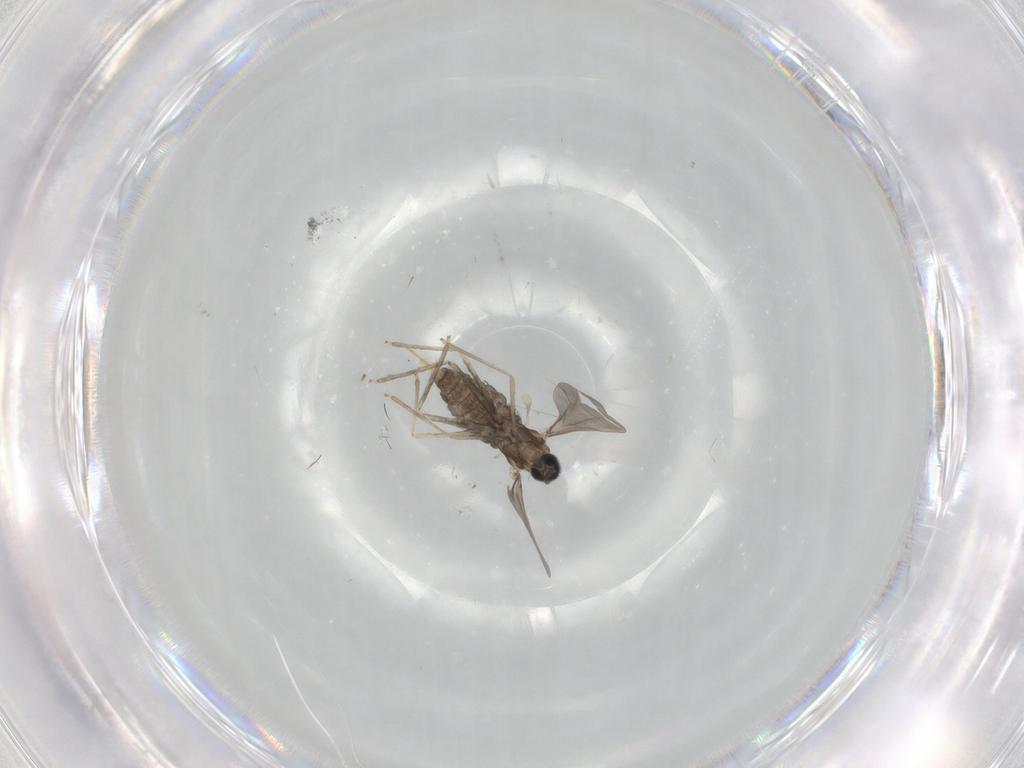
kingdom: Animalia
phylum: Arthropoda
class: Insecta
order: Diptera
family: Cecidomyiidae
